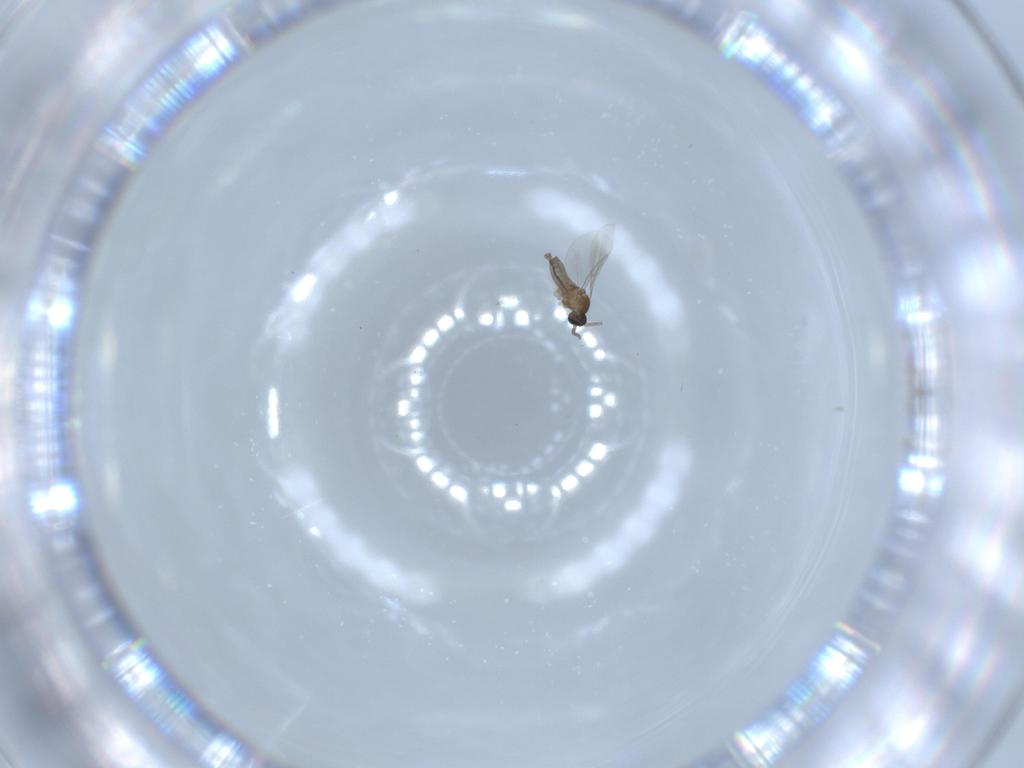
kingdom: Animalia
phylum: Arthropoda
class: Insecta
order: Diptera
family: Cecidomyiidae
